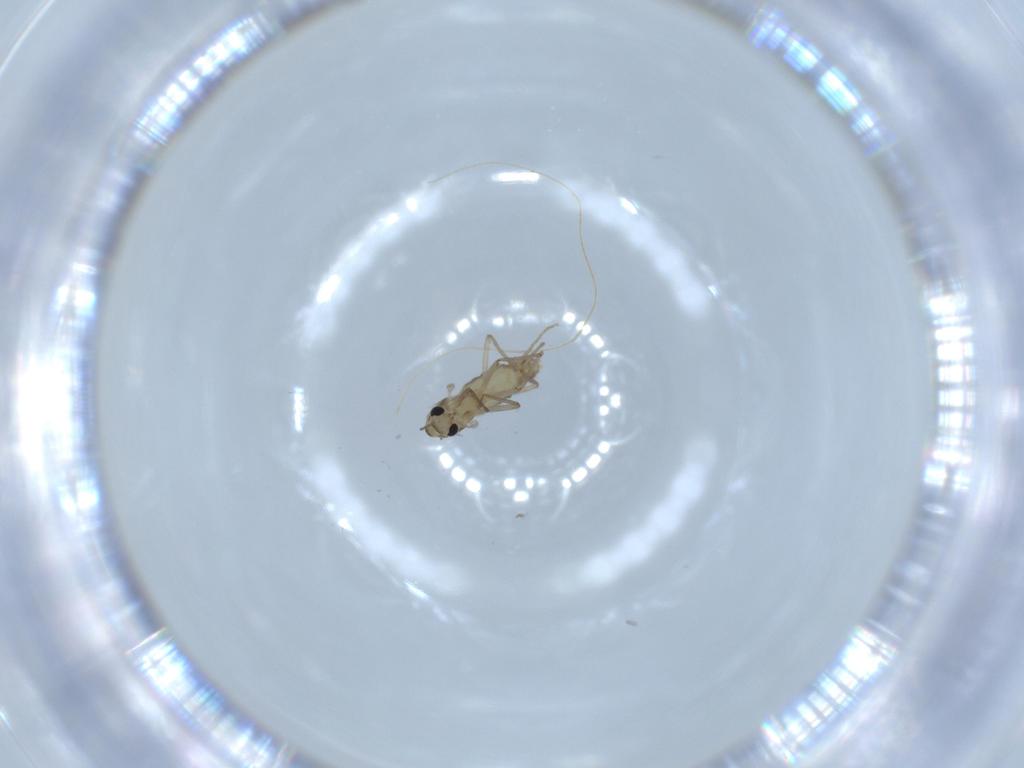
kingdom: Animalia
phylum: Arthropoda
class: Insecta
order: Diptera
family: Chironomidae
